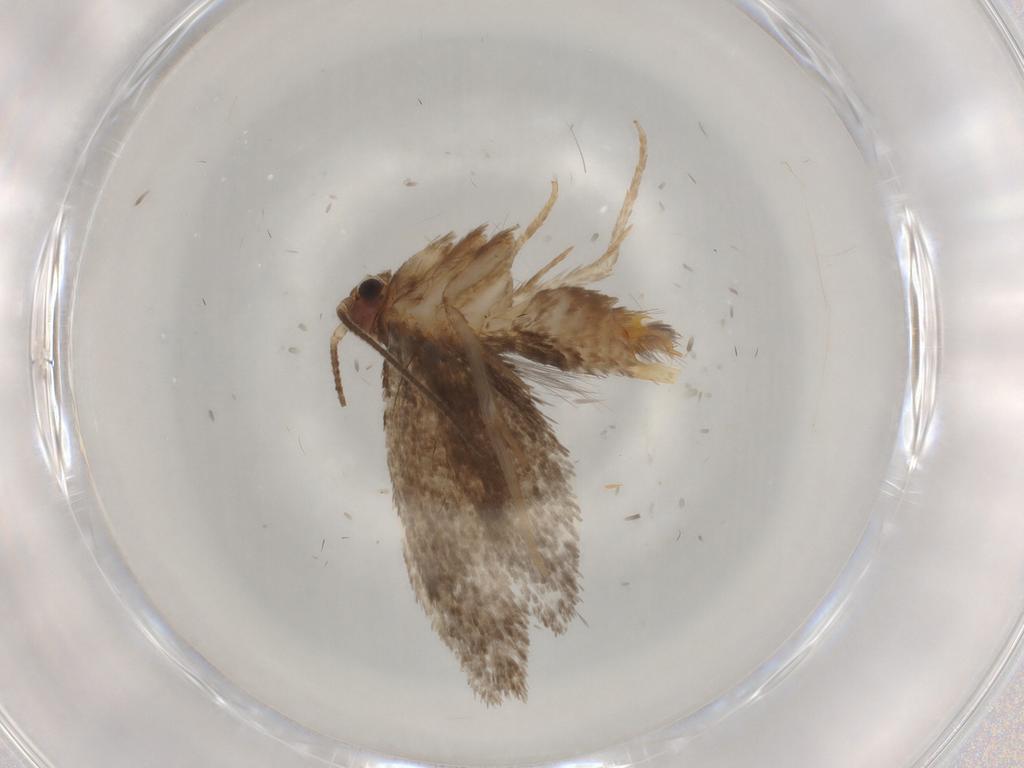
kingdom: Animalia
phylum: Arthropoda
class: Insecta
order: Lepidoptera
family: Nepticulidae
